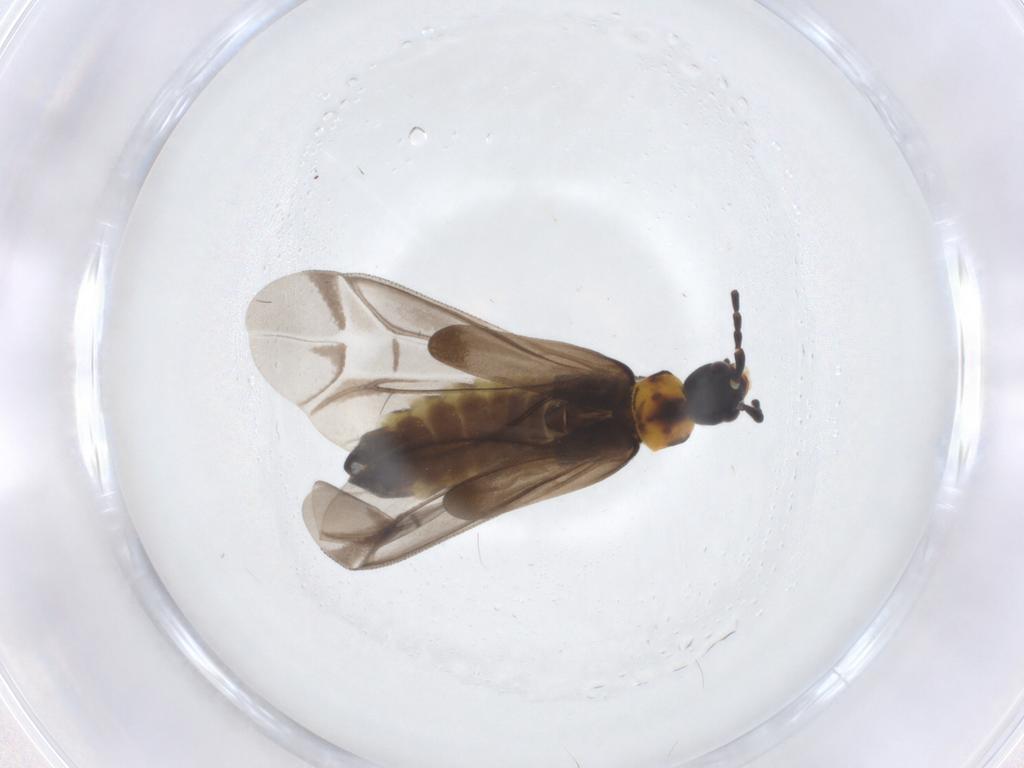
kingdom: Animalia
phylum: Arthropoda
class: Insecta
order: Coleoptera
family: Cantharidae
